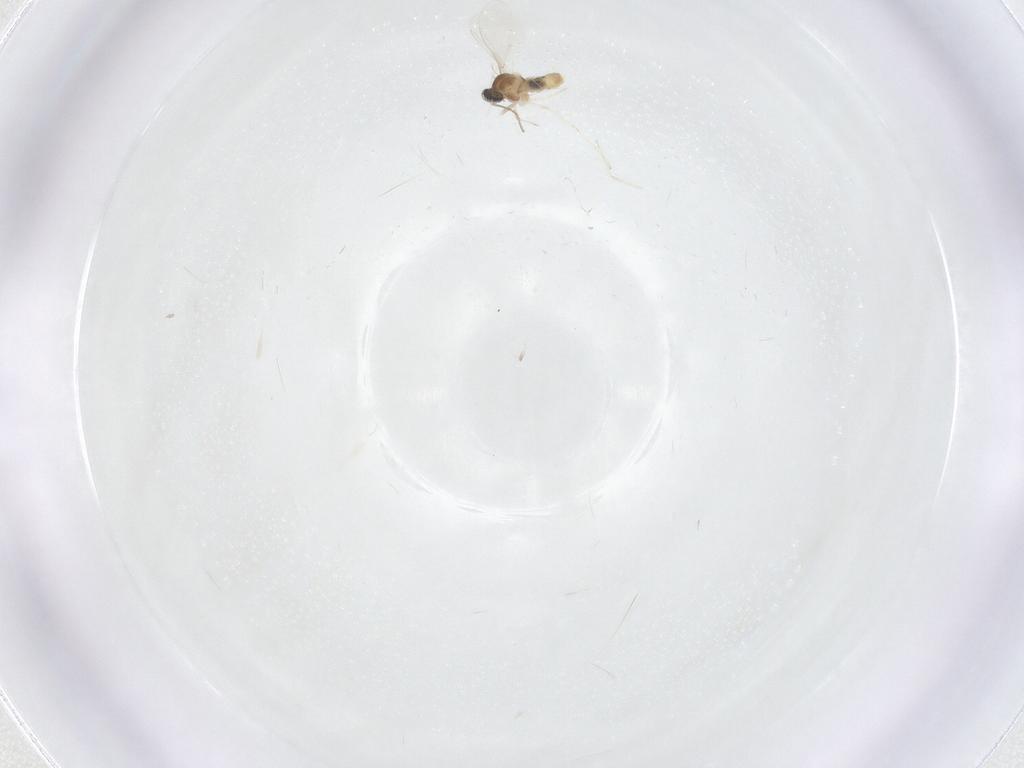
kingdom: Animalia
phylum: Arthropoda
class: Insecta
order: Diptera
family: Cecidomyiidae
